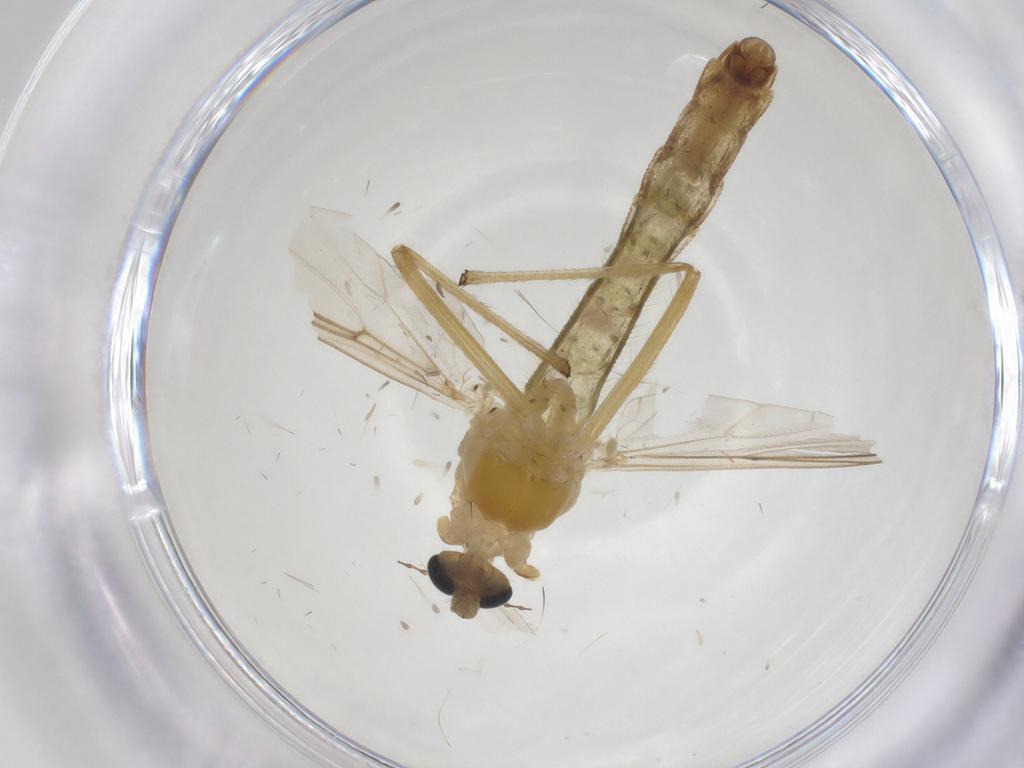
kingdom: Animalia
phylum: Arthropoda
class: Insecta
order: Diptera
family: Chloropidae
